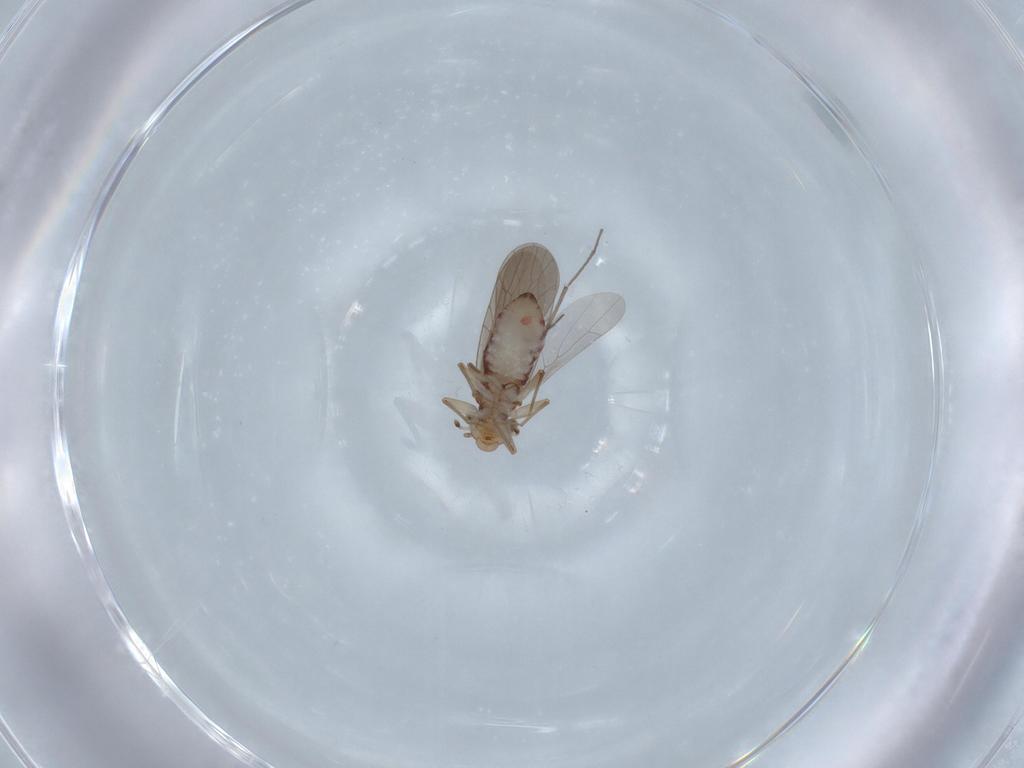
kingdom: Animalia
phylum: Arthropoda
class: Insecta
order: Psocodea
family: Lepidopsocidae
